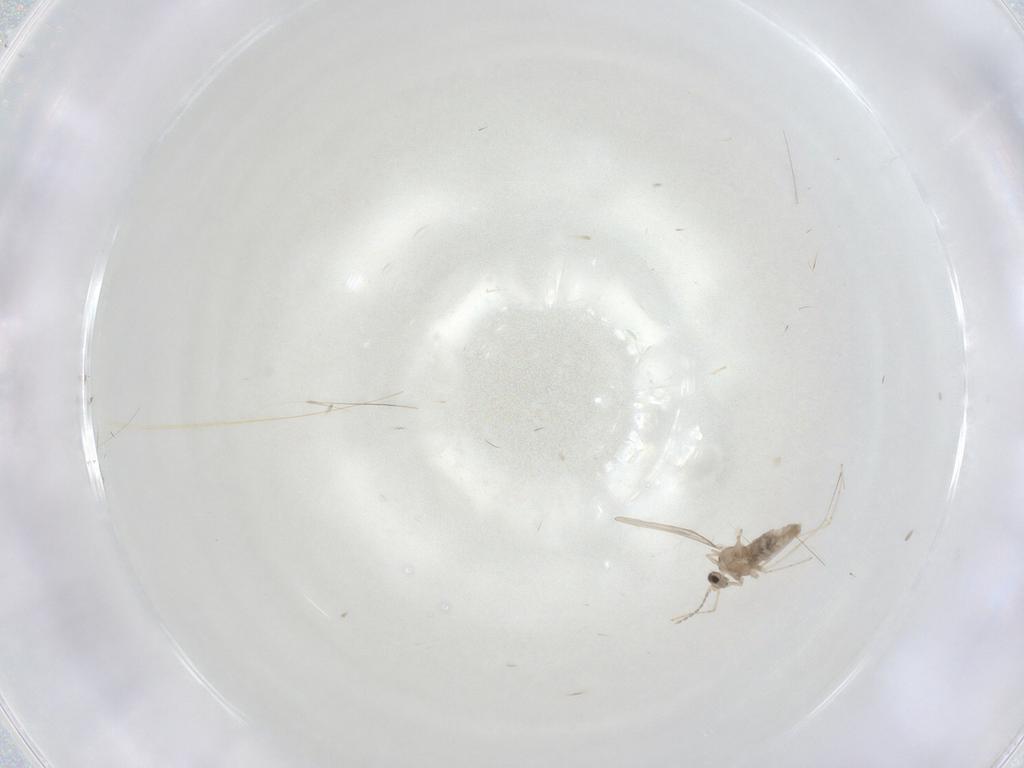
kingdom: Animalia
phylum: Arthropoda
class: Insecta
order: Diptera
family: Cecidomyiidae
